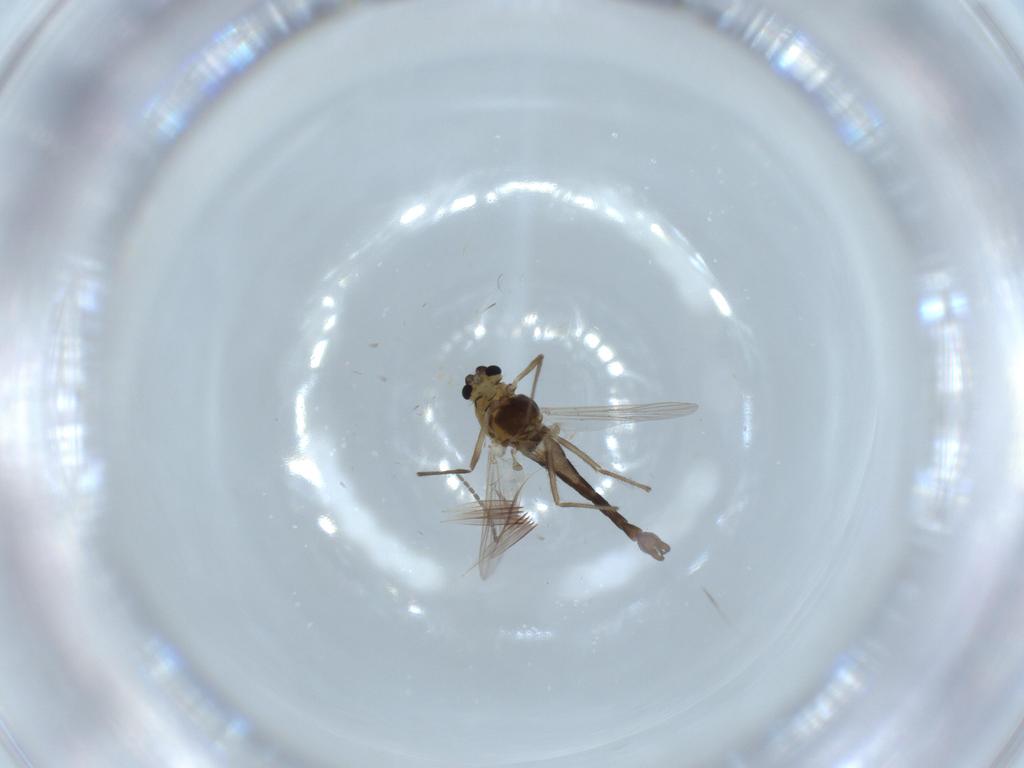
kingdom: Animalia
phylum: Arthropoda
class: Insecta
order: Diptera
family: Chironomidae
